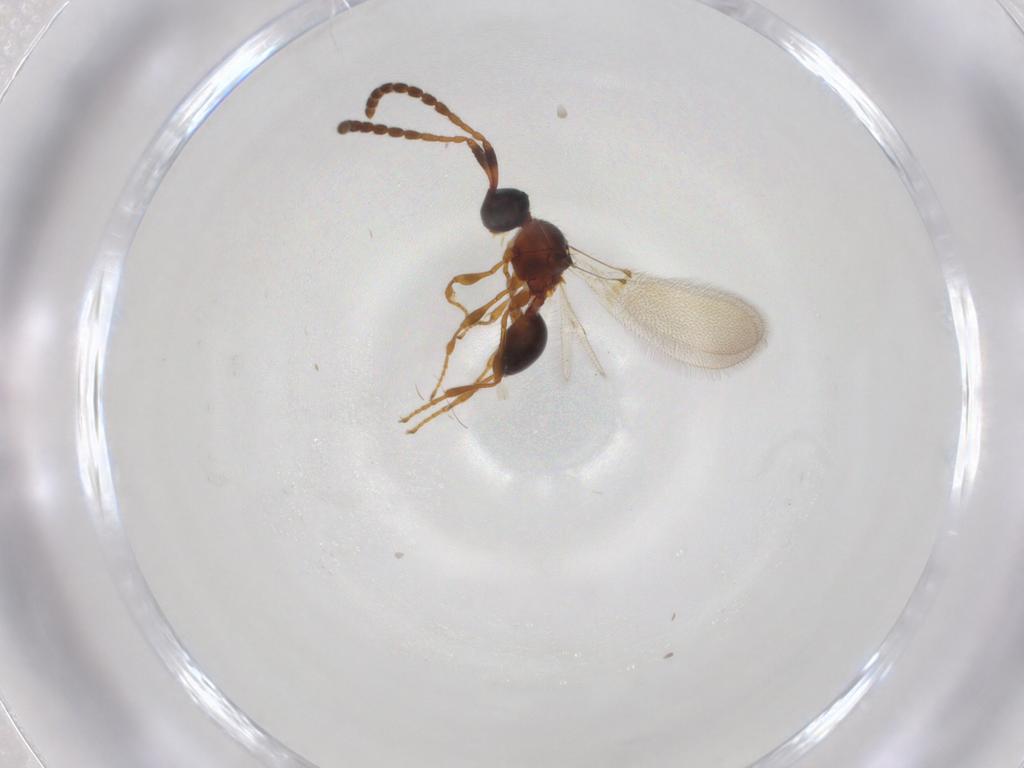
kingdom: Animalia
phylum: Arthropoda
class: Insecta
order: Hymenoptera
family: Diapriidae
